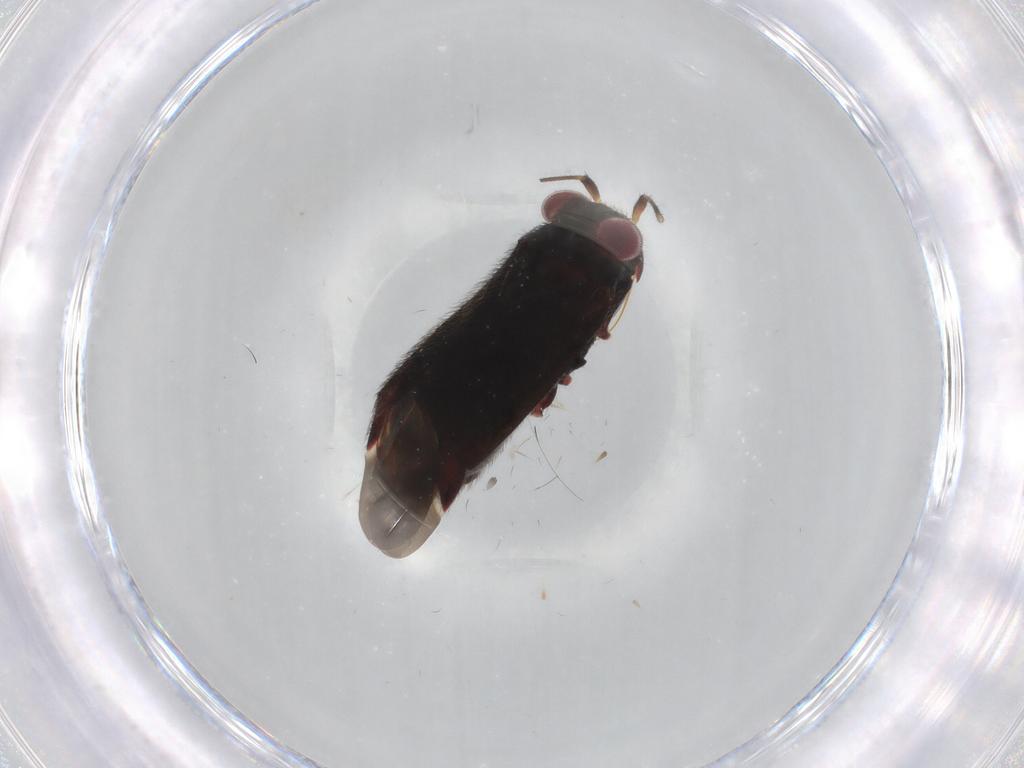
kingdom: Animalia
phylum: Arthropoda
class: Insecta
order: Hemiptera
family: Miridae
